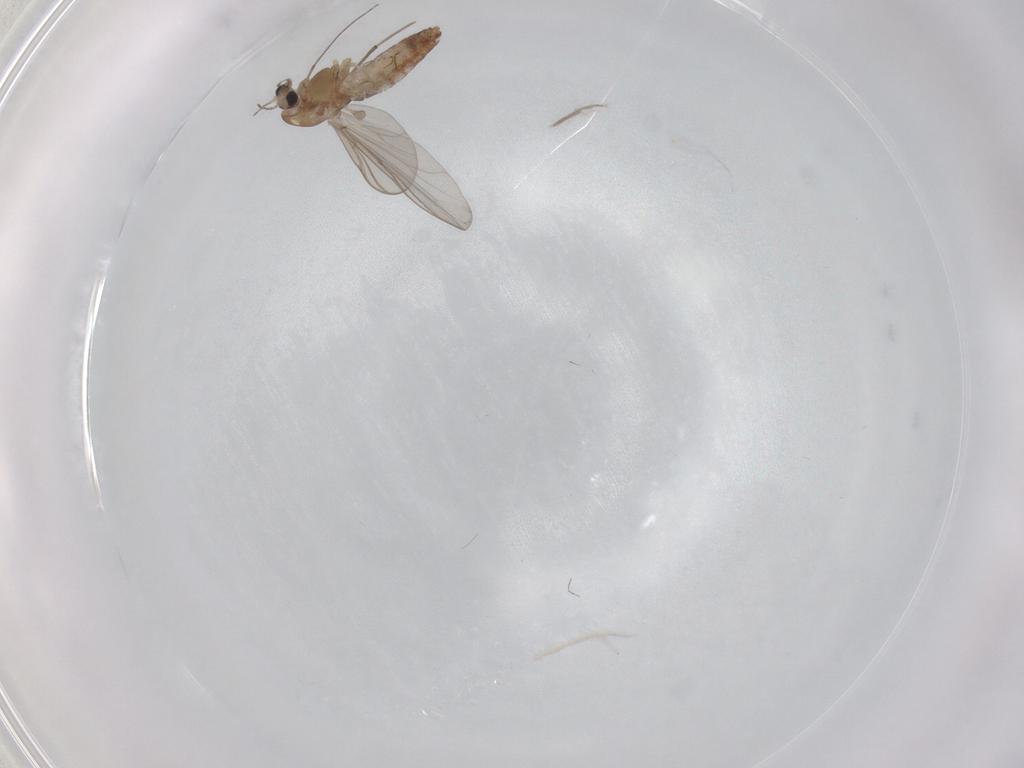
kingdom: Animalia
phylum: Arthropoda
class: Insecta
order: Diptera
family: Chironomidae
